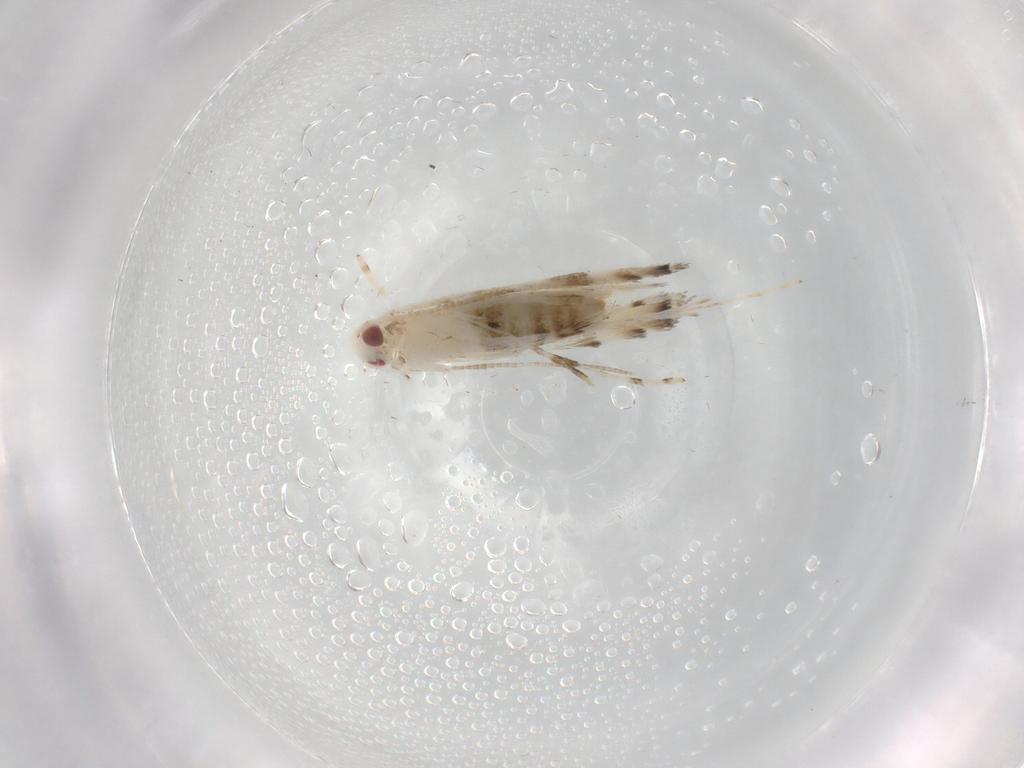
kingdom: Animalia
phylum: Arthropoda
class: Insecta
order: Lepidoptera
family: Gracillariidae
